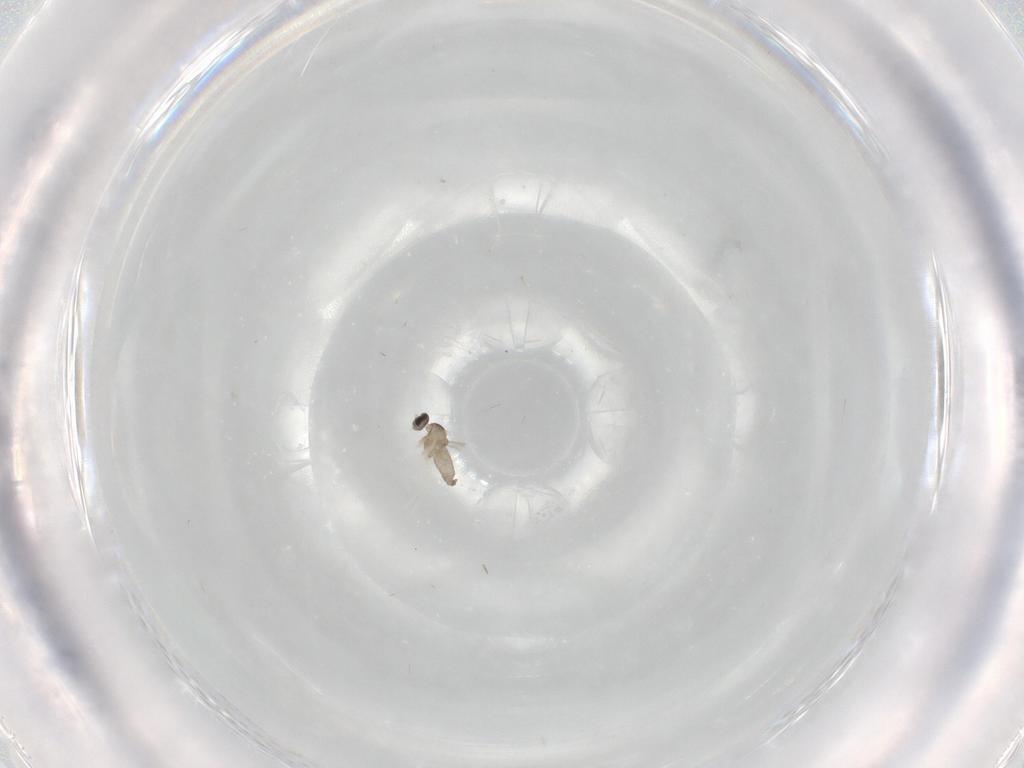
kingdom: Animalia
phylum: Arthropoda
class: Insecta
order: Diptera
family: Cecidomyiidae
